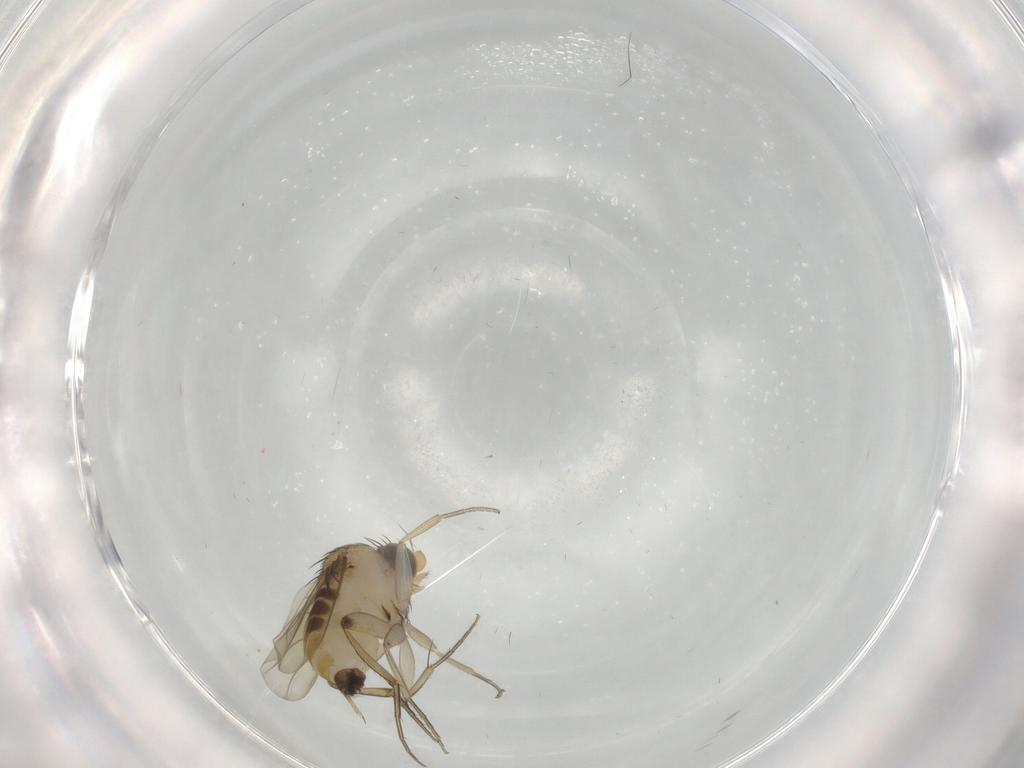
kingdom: Animalia
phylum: Arthropoda
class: Insecta
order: Diptera
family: Phoridae
